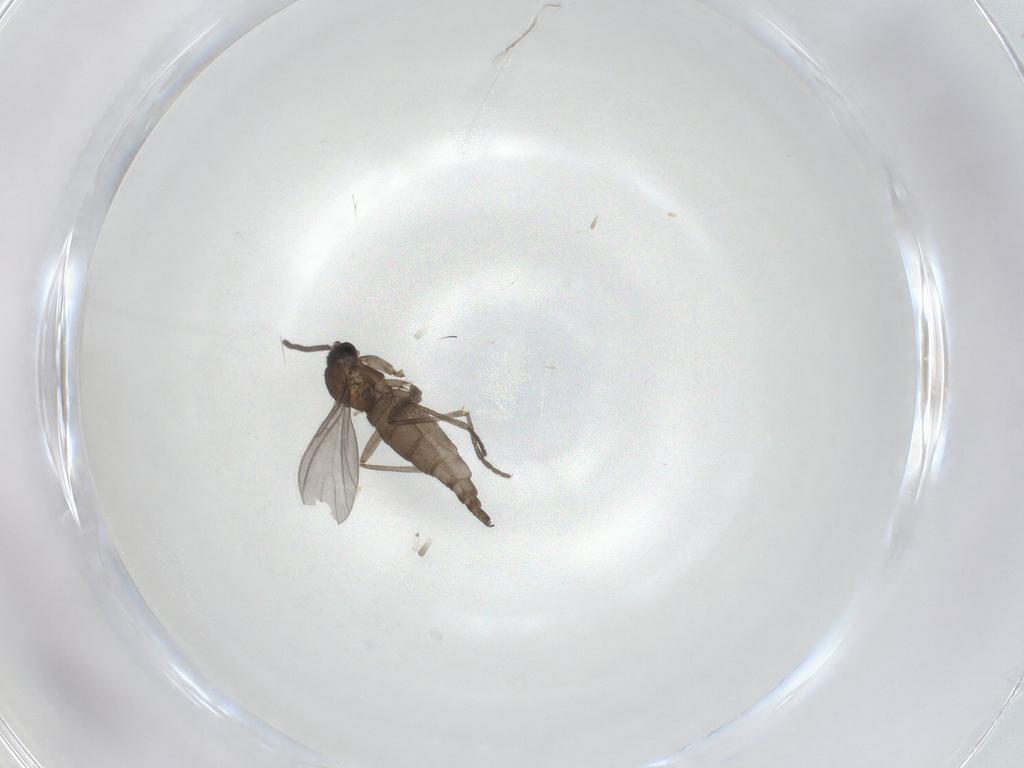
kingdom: Animalia
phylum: Arthropoda
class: Insecta
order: Diptera
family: Sciaridae
